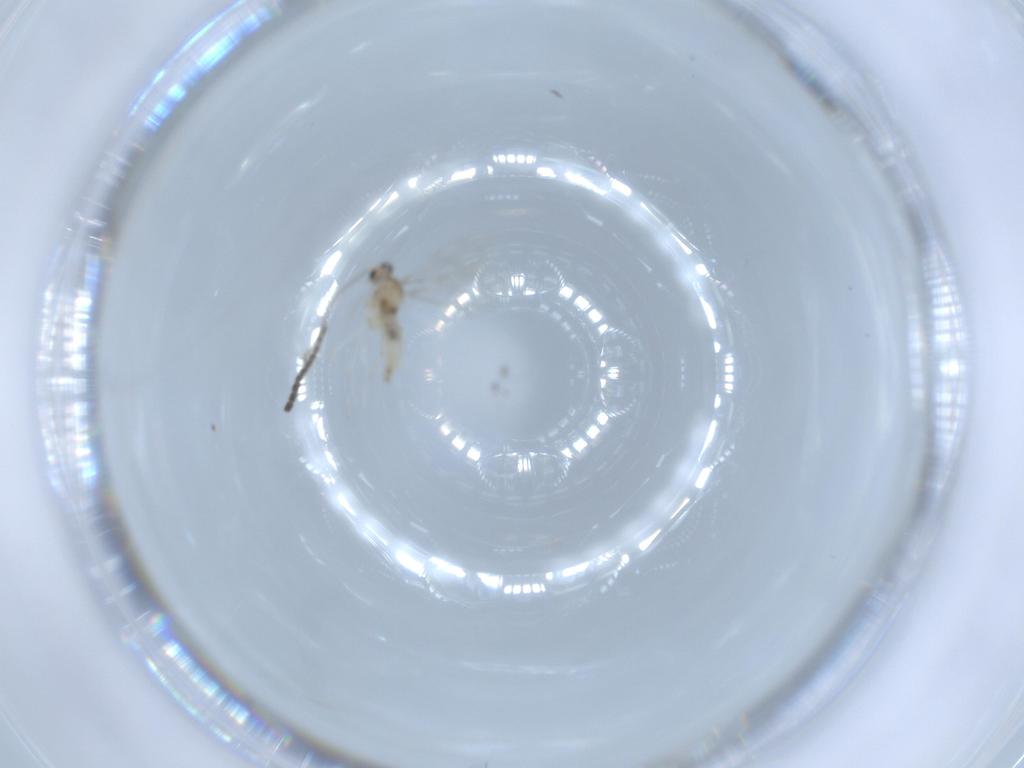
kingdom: Animalia
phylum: Arthropoda
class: Insecta
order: Diptera
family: Cecidomyiidae
